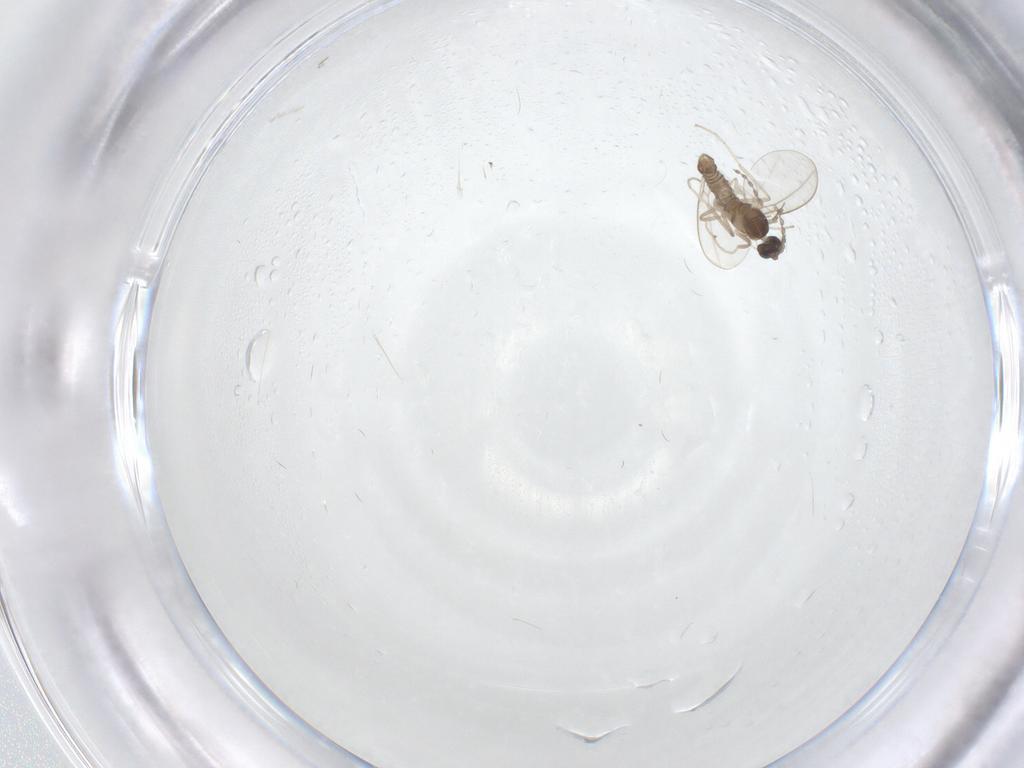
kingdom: Animalia
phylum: Arthropoda
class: Insecta
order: Diptera
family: Cecidomyiidae
